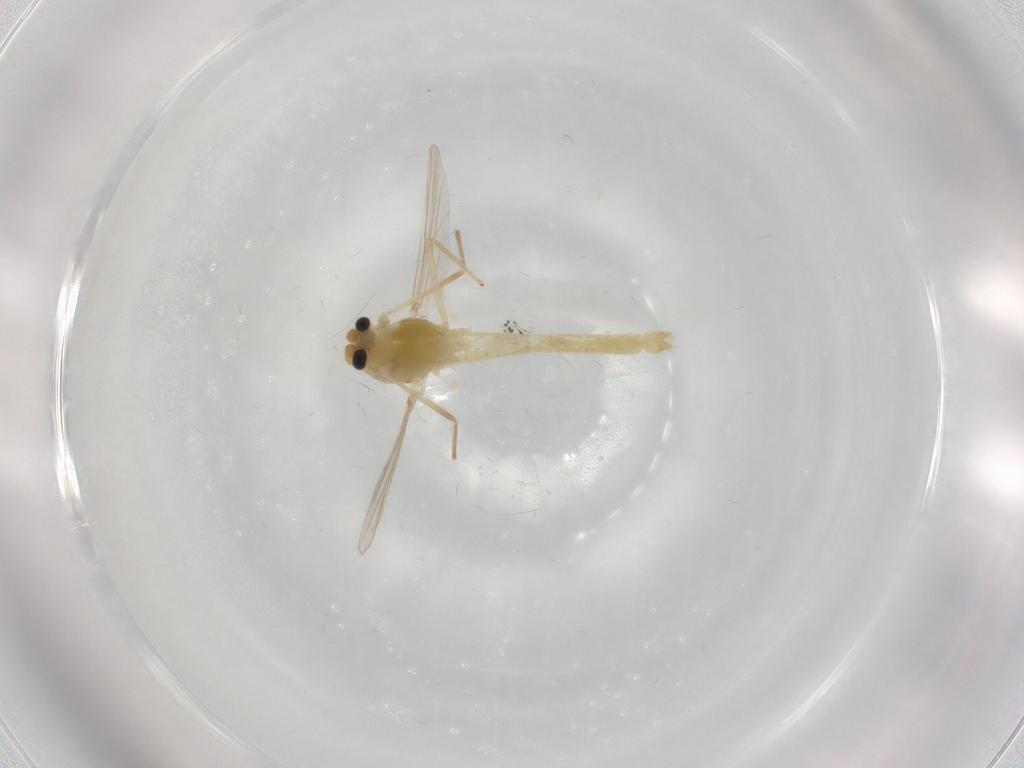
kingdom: Animalia
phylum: Arthropoda
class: Insecta
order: Diptera
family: Chironomidae
